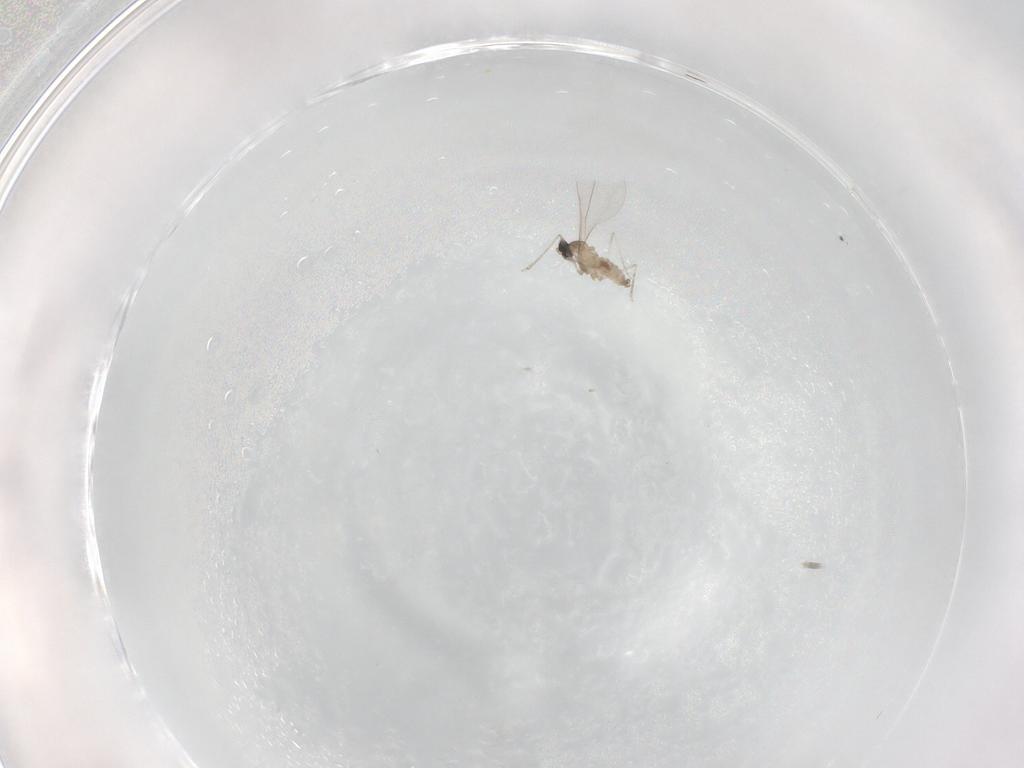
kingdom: Animalia
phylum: Arthropoda
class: Insecta
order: Diptera
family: Cecidomyiidae
